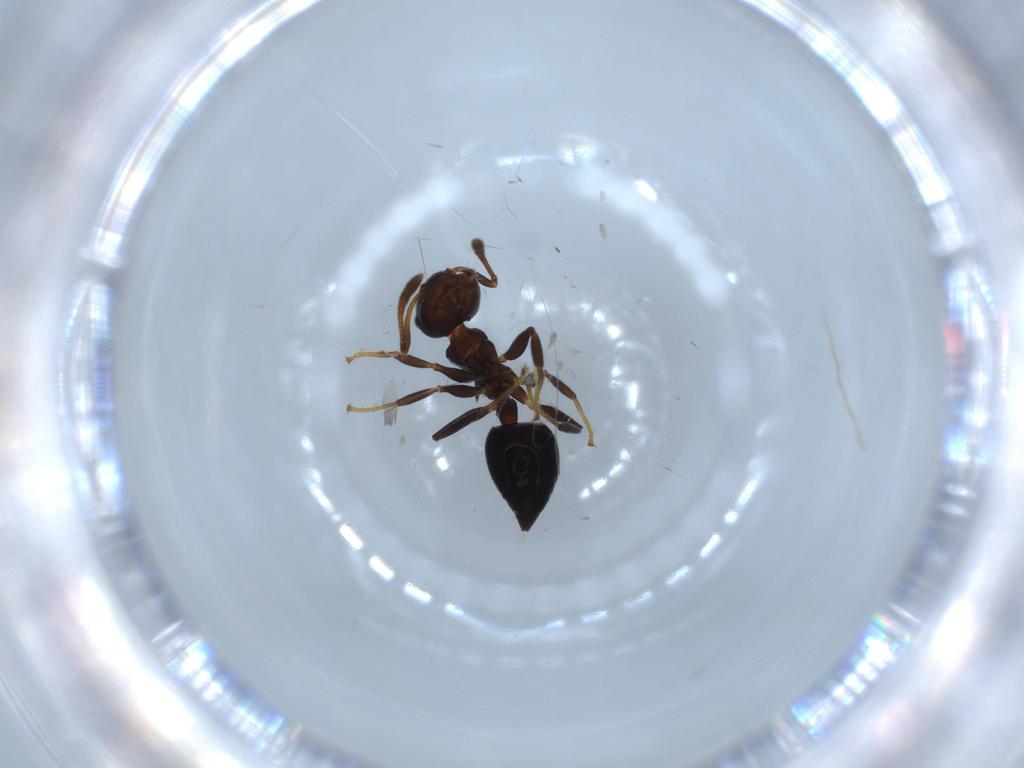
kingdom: Animalia
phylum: Arthropoda
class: Insecta
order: Hymenoptera
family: Formicidae
